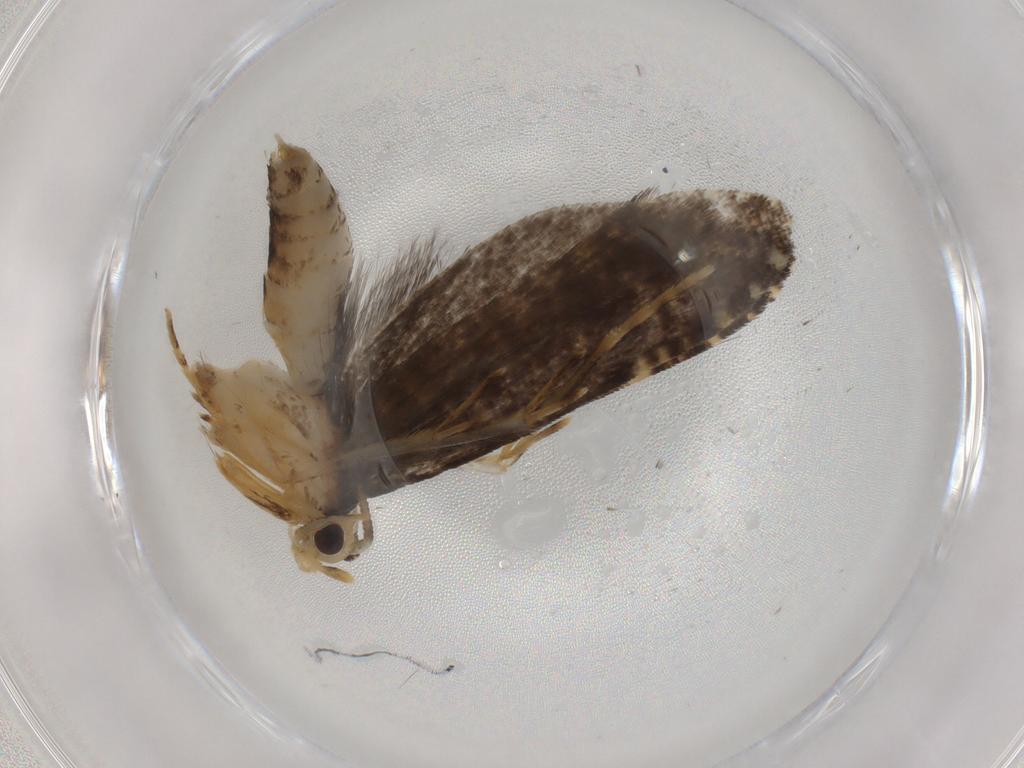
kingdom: Animalia
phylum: Arthropoda
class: Insecta
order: Lepidoptera
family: Tineidae
